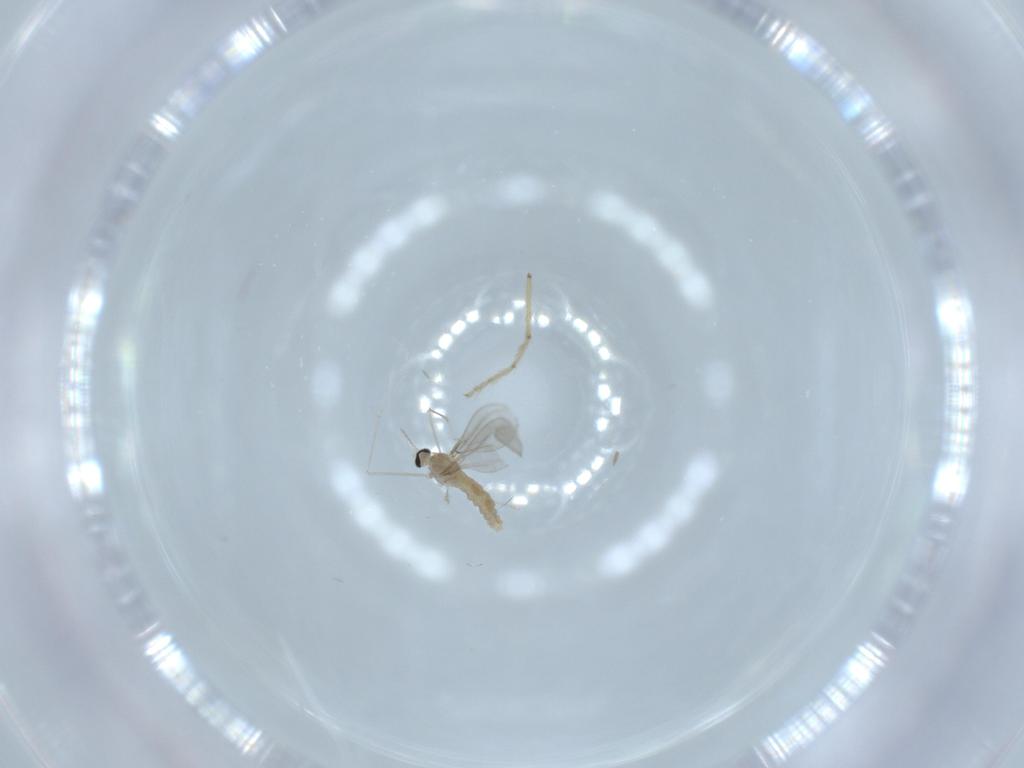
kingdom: Animalia
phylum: Arthropoda
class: Insecta
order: Diptera
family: Cecidomyiidae
